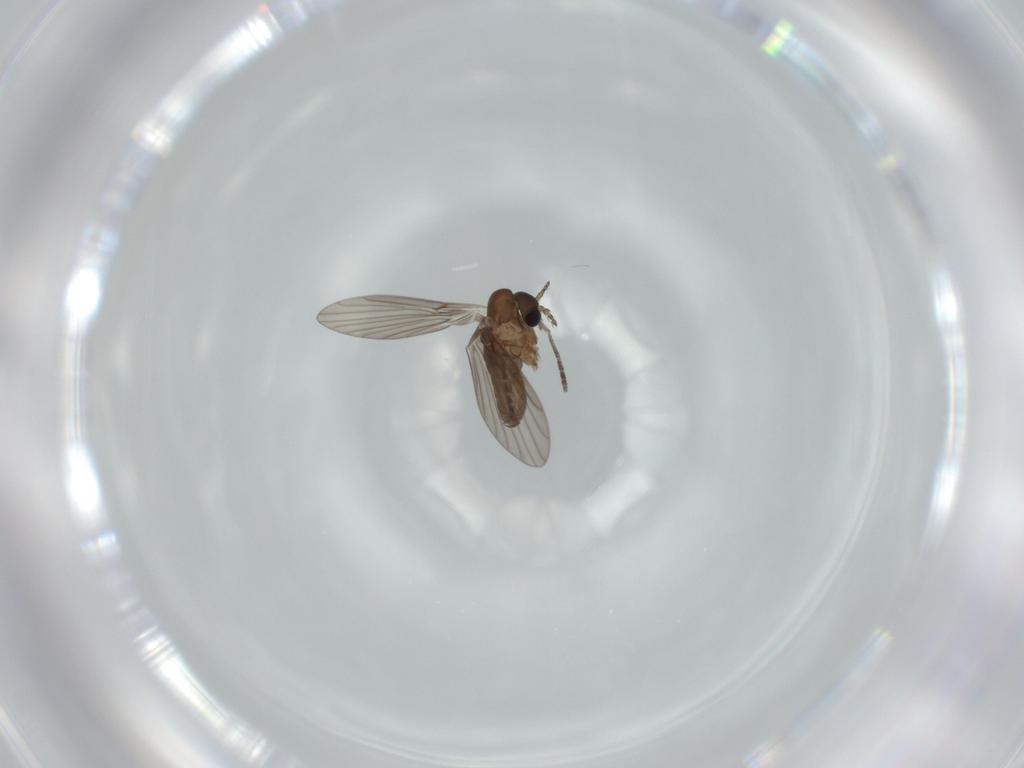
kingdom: Animalia
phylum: Arthropoda
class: Insecta
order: Diptera
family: Psychodidae
